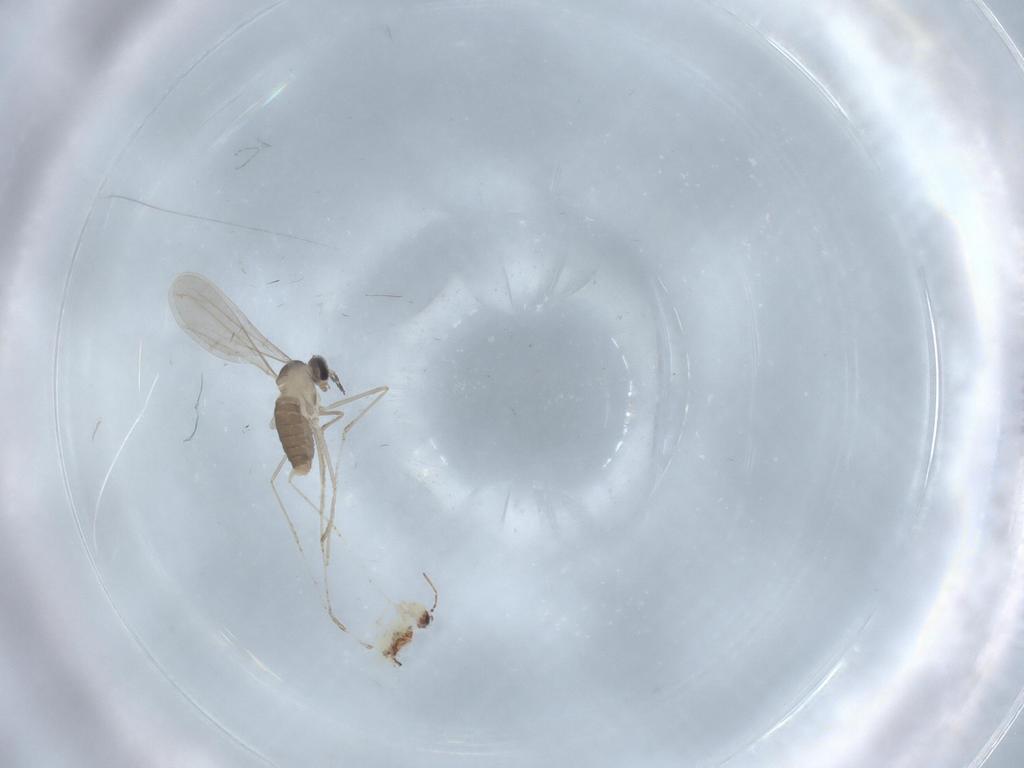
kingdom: Animalia
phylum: Arthropoda
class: Insecta
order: Diptera
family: Cecidomyiidae
